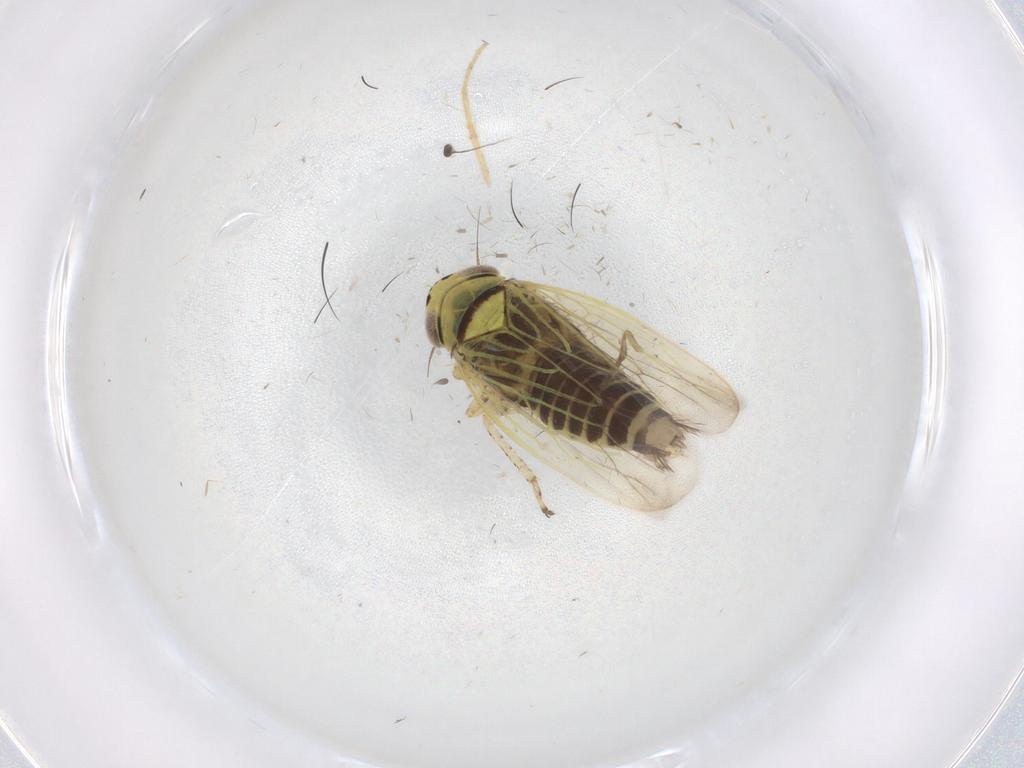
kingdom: Animalia
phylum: Arthropoda
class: Insecta
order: Hemiptera
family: Cicadellidae
